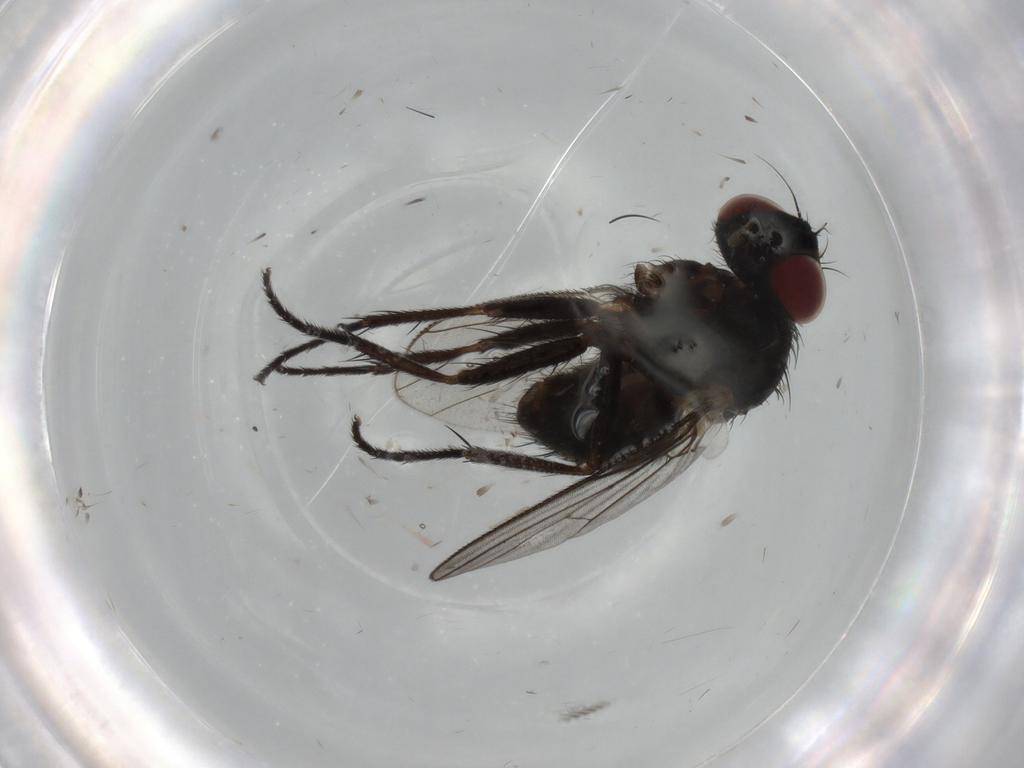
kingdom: Animalia
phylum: Arthropoda
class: Insecta
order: Diptera
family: Muscidae
